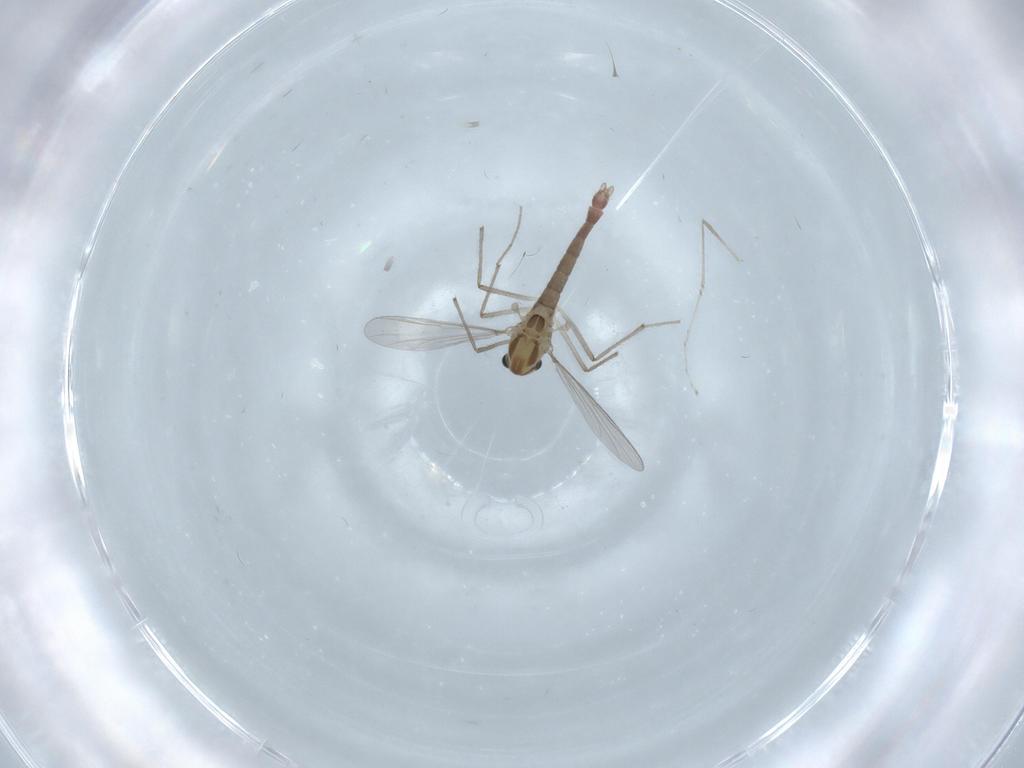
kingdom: Animalia
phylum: Arthropoda
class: Insecta
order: Diptera
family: Chironomidae
